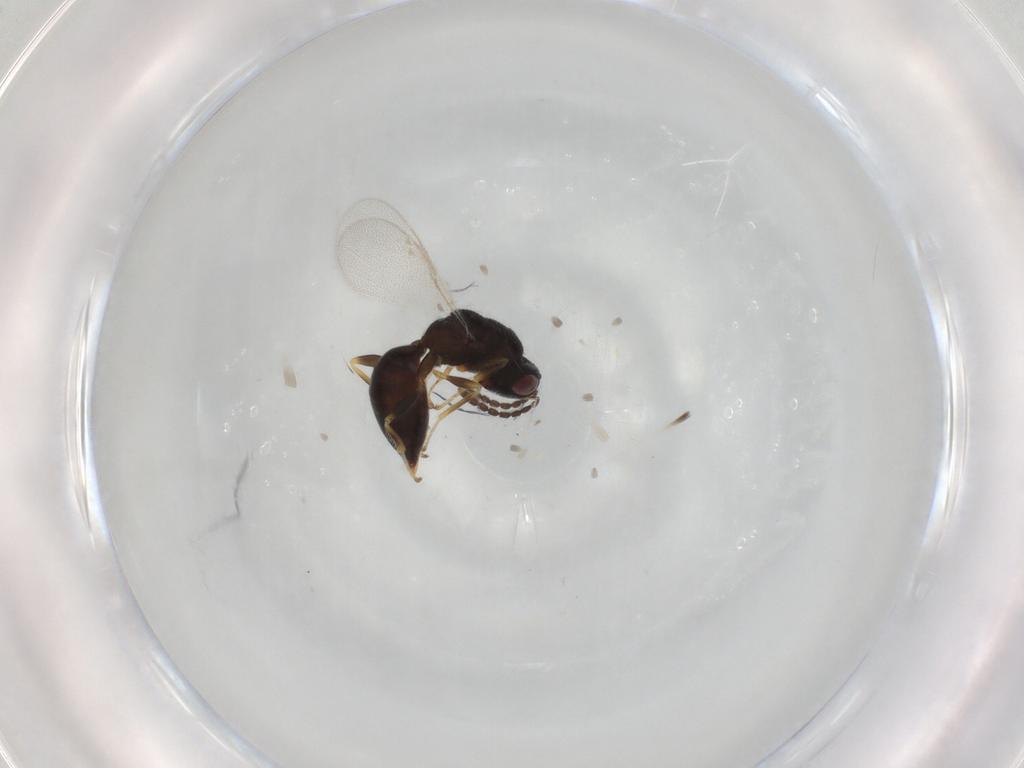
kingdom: Animalia
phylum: Arthropoda
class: Insecta
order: Hymenoptera
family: Eurytomidae
